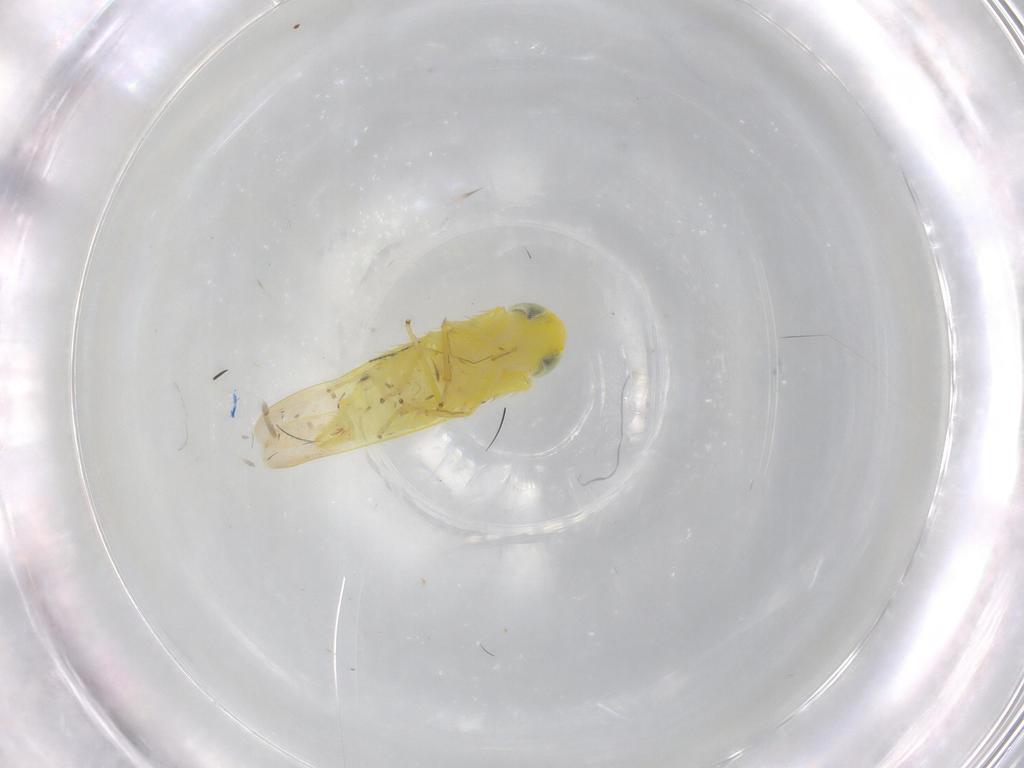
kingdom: Animalia
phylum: Arthropoda
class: Insecta
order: Hemiptera
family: Cicadellidae
